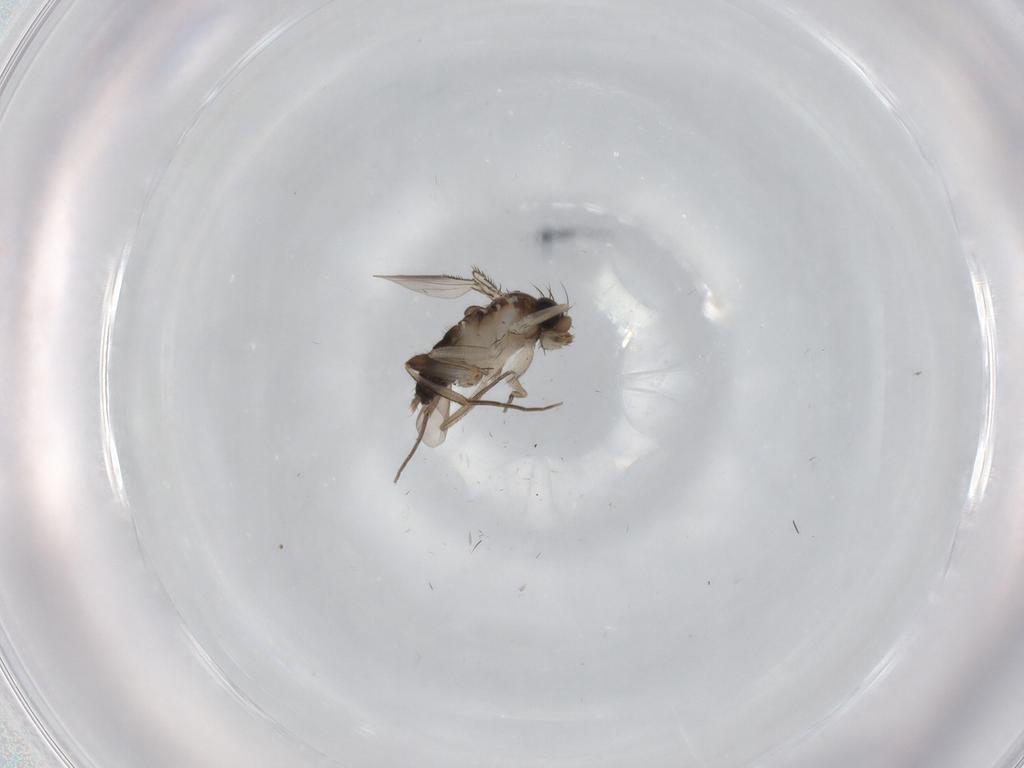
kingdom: Animalia
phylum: Arthropoda
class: Insecta
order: Diptera
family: Phoridae
